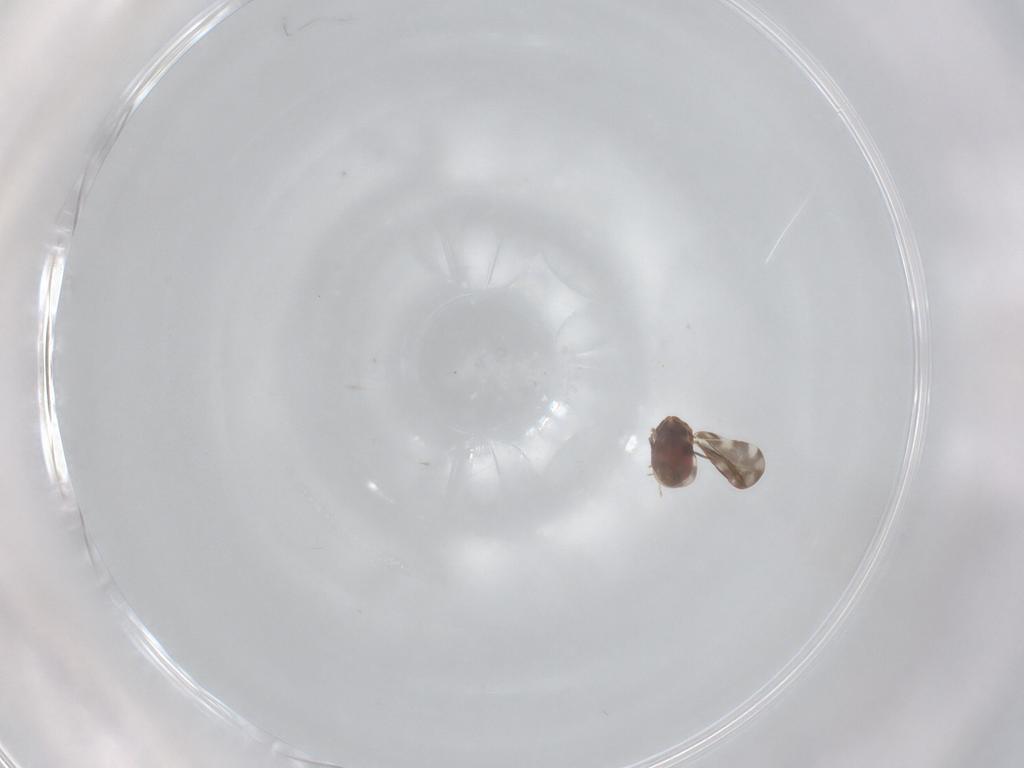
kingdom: Animalia
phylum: Arthropoda
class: Insecta
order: Hemiptera
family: Aleyrodidae
